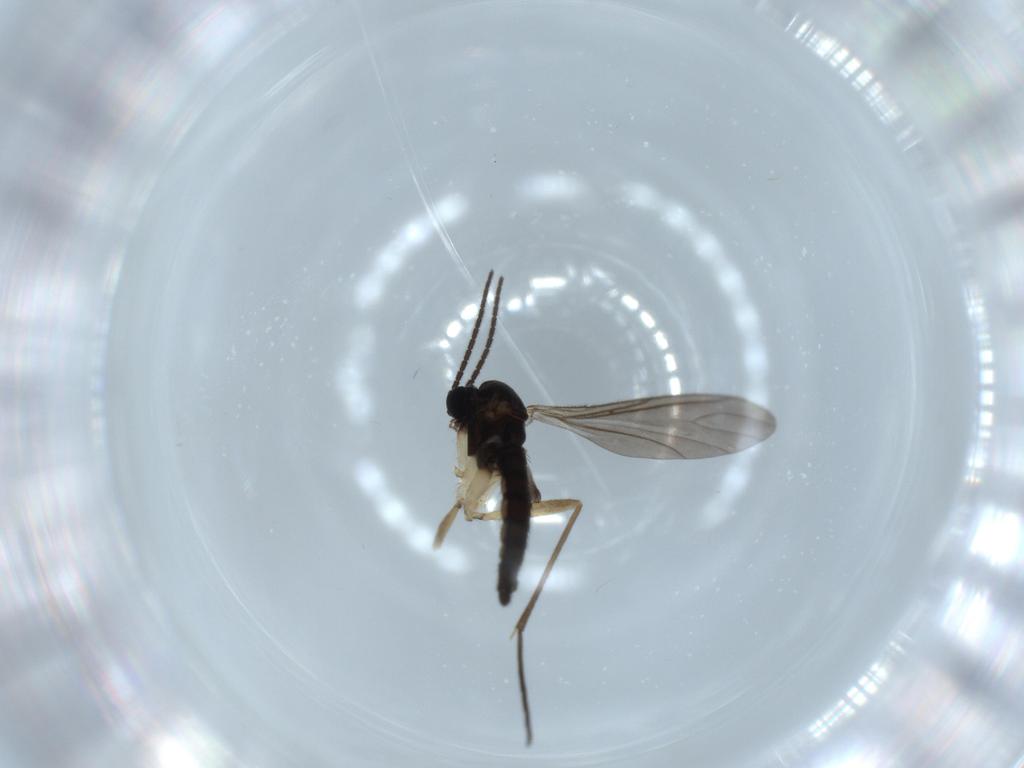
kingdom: Animalia
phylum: Arthropoda
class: Insecta
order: Diptera
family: Sciaridae
